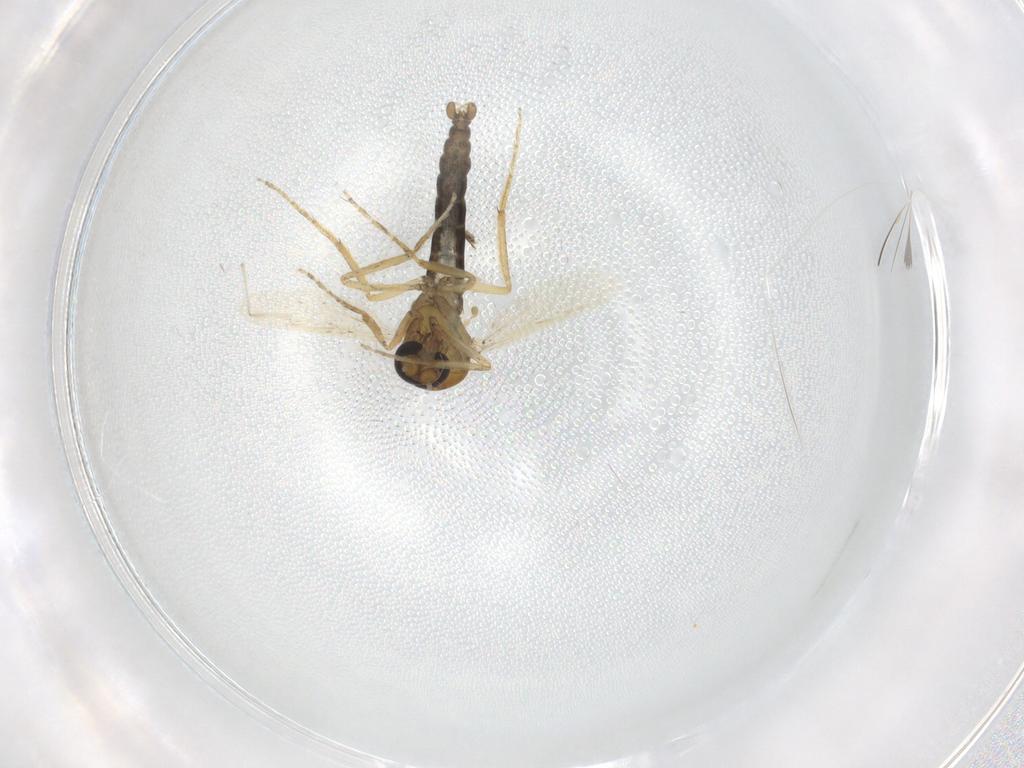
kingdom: Animalia
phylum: Arthropoda
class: Insecta
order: Diptera
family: Ceratopogonidae
